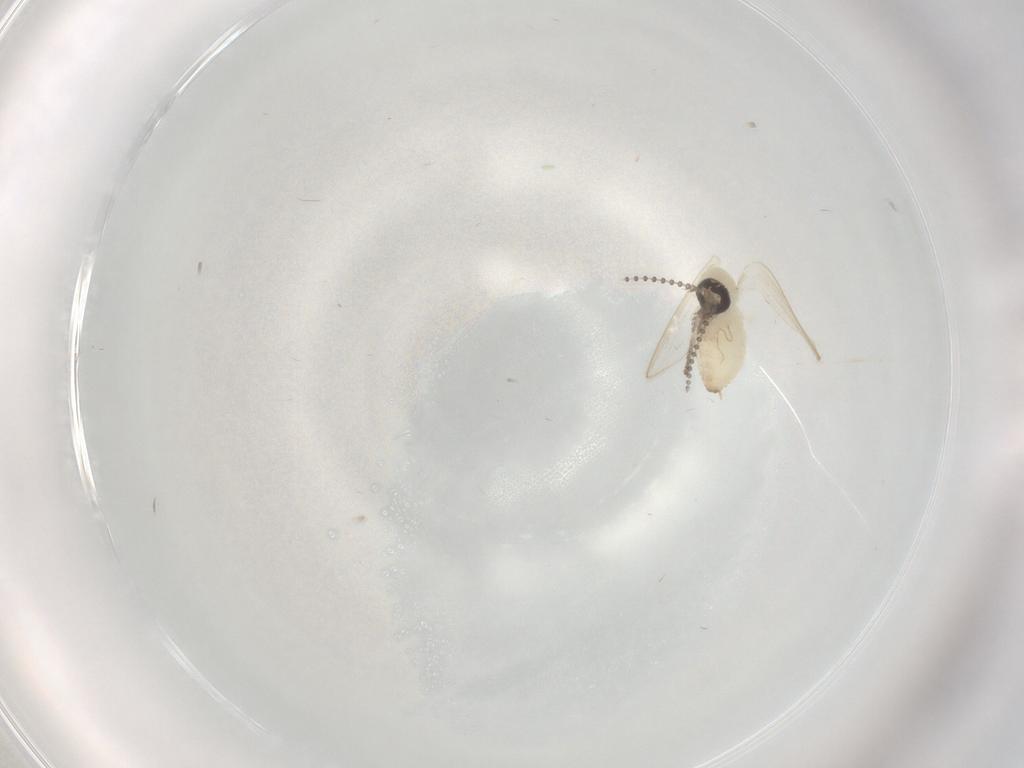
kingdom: Animalia
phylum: Arthropoda
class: Insecta
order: Diptera
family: Psychodidae
